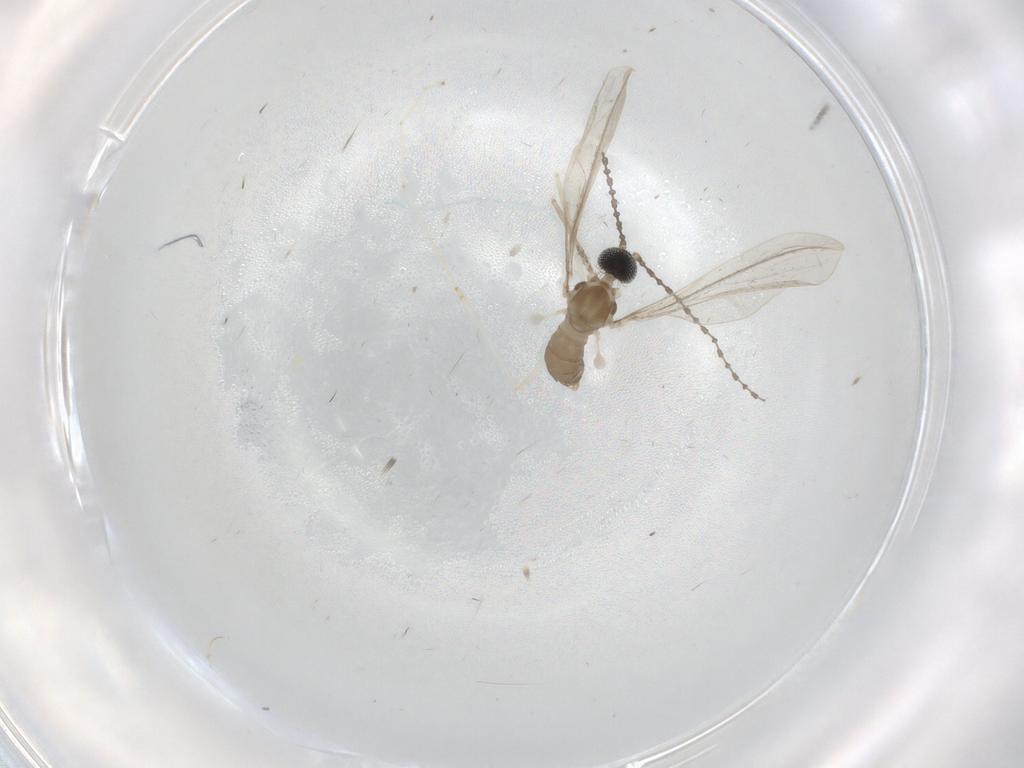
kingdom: Animalia
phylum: Arthropoda
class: Insecta
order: Diptera
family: Cecidomyiidae
